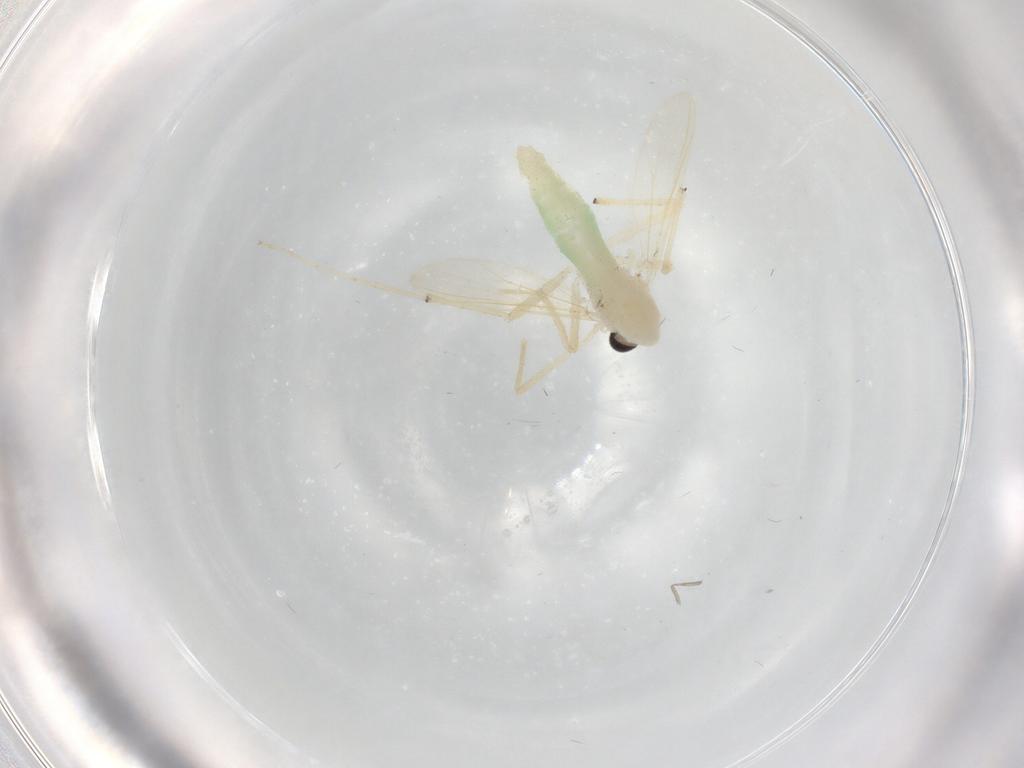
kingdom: Animalia
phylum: Arthropoda
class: Insecta
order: Diptera
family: Chironomidae
